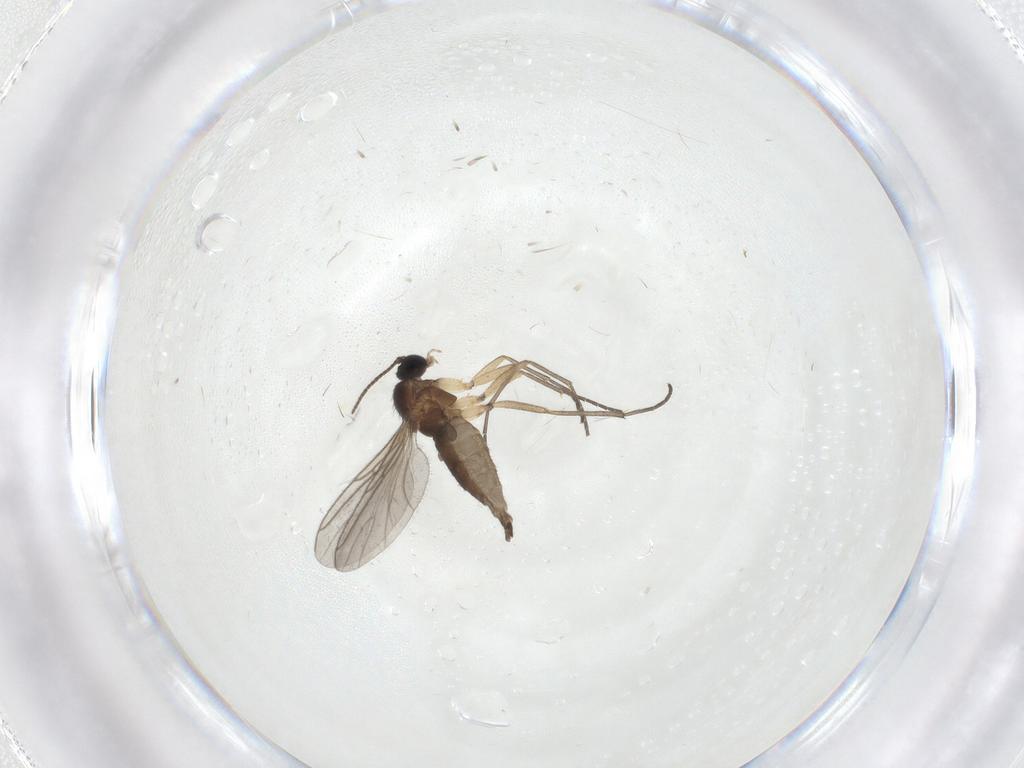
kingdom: Animalia
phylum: Arthropoda
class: Insecta
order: Diptera
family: Sciaridae
